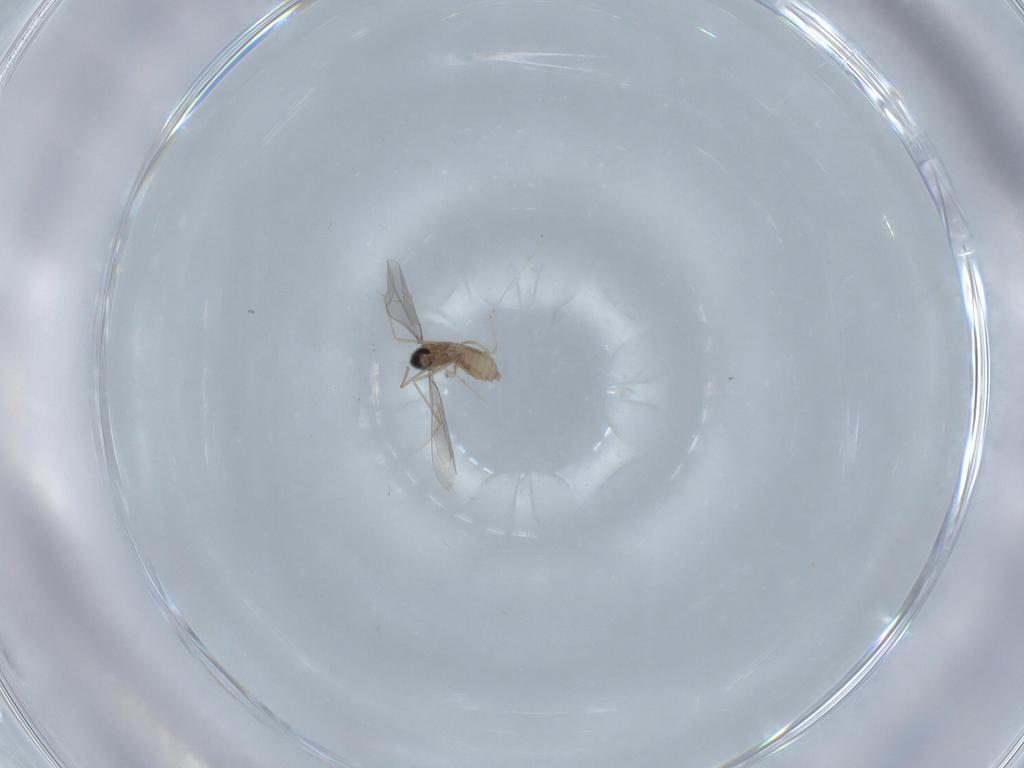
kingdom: Animalia
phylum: Arthropoda
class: Insecta
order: Diptera
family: Cecidomyiidae
